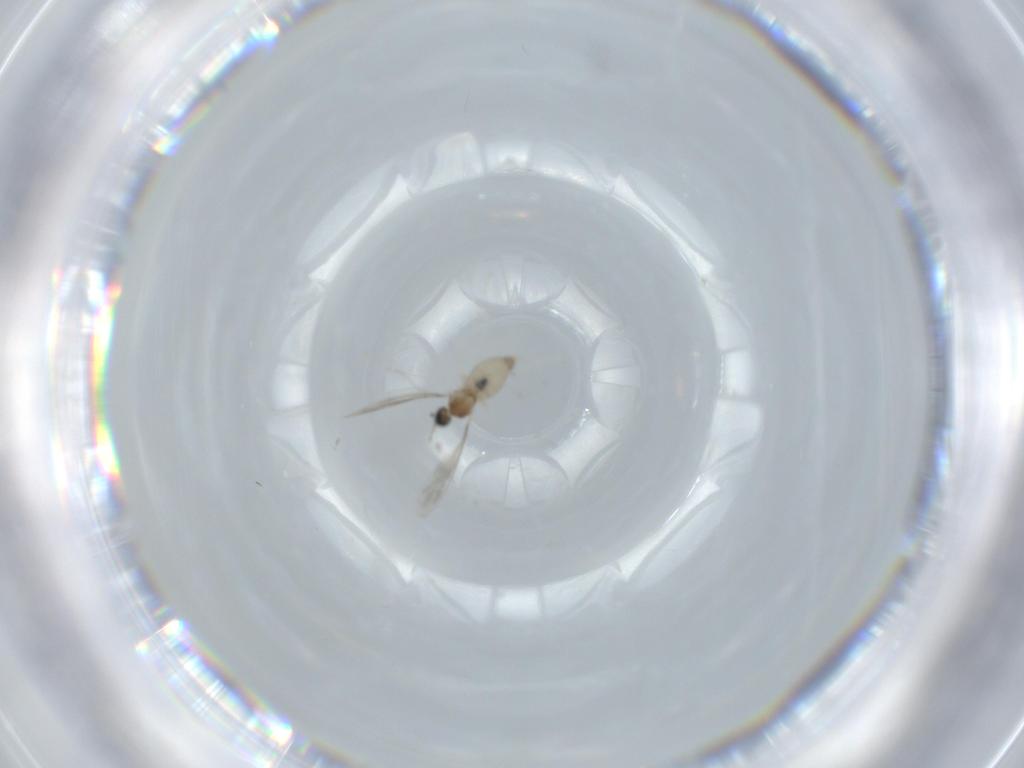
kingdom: Animalia
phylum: Arthropoda
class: Insecta
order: Diptera
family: Cecidomyiidae
